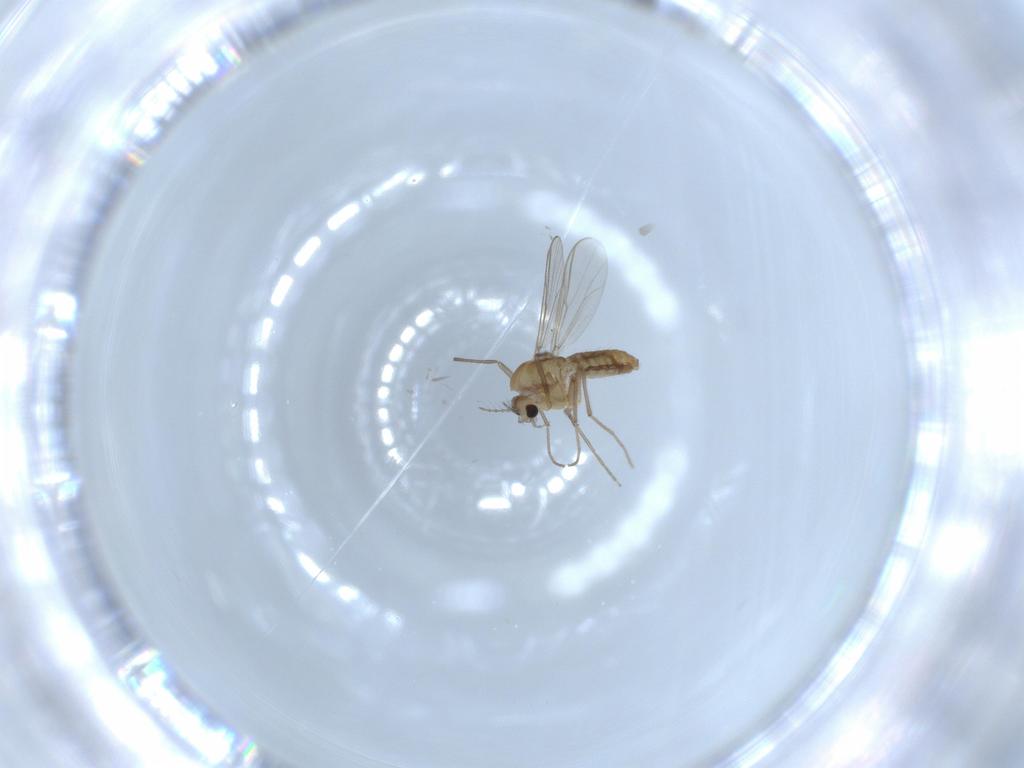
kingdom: Animalia
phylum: Arthropoda
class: Insecta
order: Diptera
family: Chironomidae
